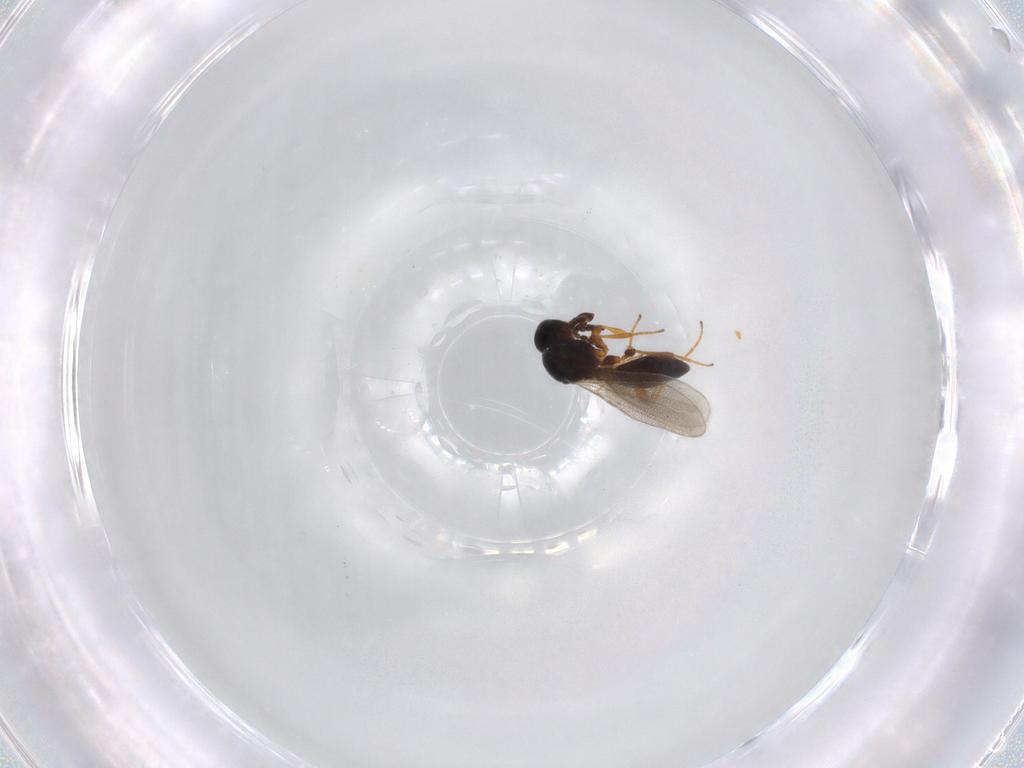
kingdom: Animalia
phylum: Arthropoda
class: Insecta
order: Hymenoptera
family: Platygastridae
